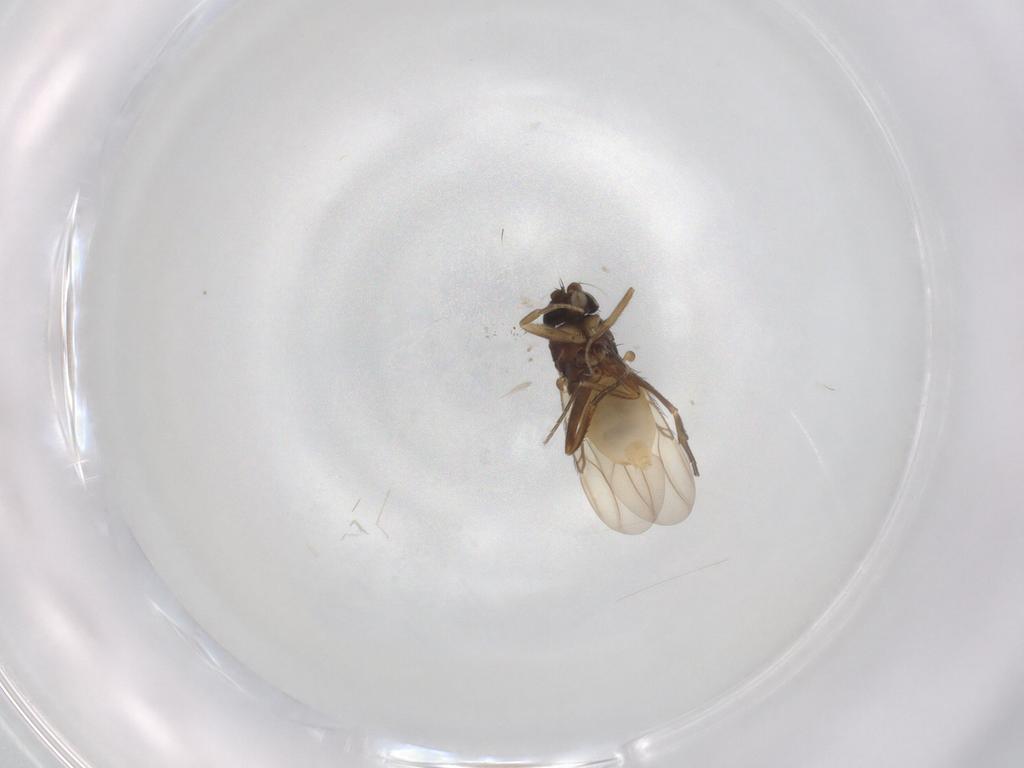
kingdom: Animalia
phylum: Arthropoda
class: Insecta
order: Diptera
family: Phoridae
